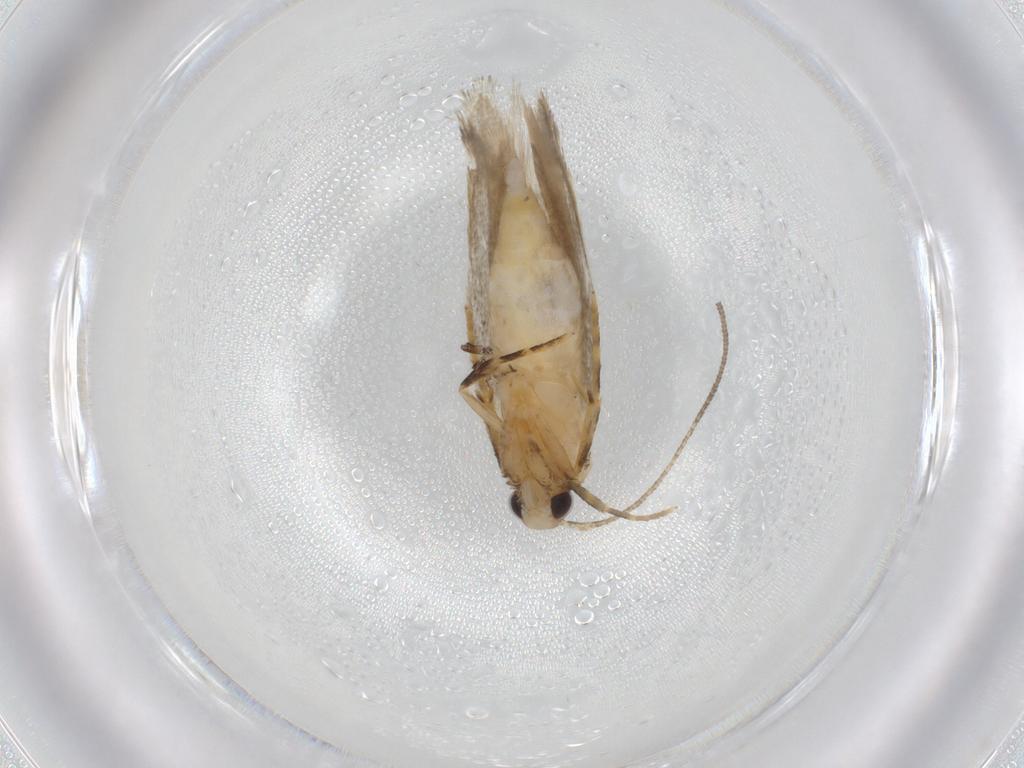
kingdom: Animalia
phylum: Arthropoda
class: Insecta
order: Lepidoptera
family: Autostichidae
